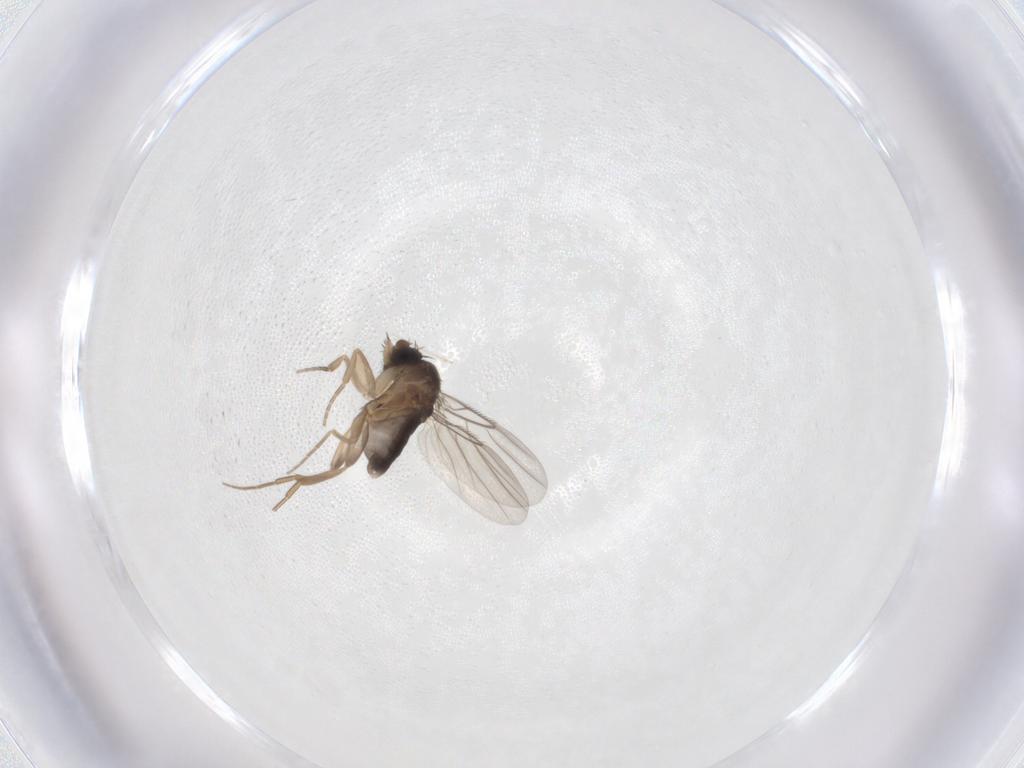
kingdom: Animalia
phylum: Arthropoda
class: Insecta
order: Diptera
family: Phoridae
